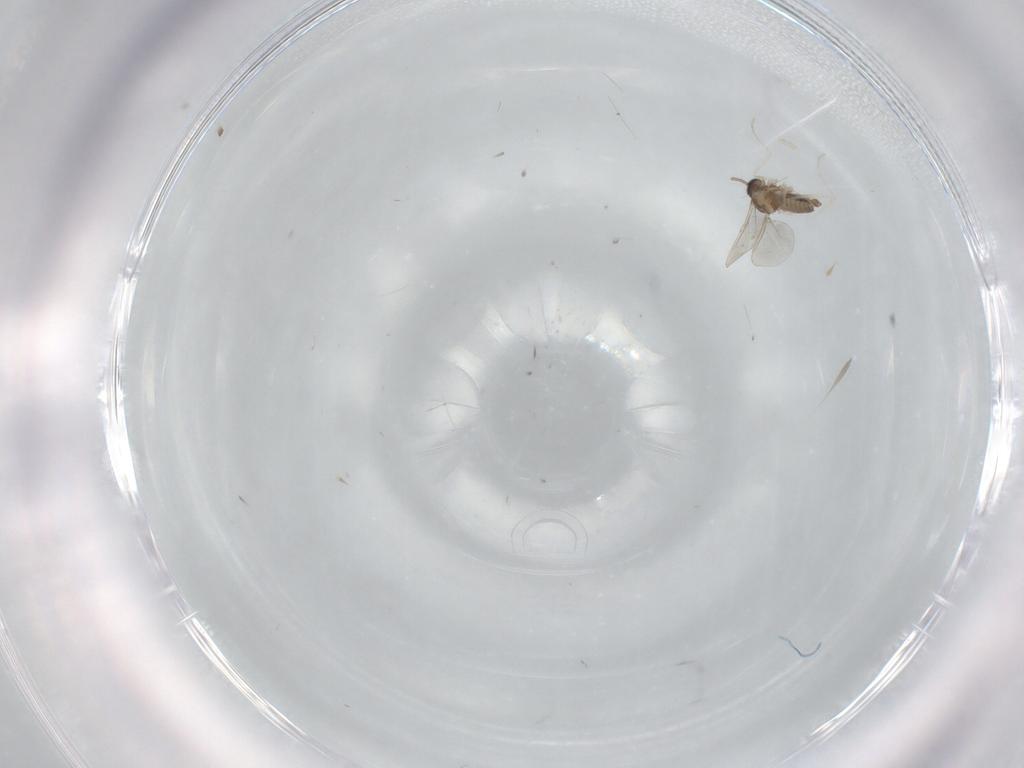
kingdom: Animalia
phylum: Arthropoda
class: Insecta
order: Diptera
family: Cecidomyiidae
